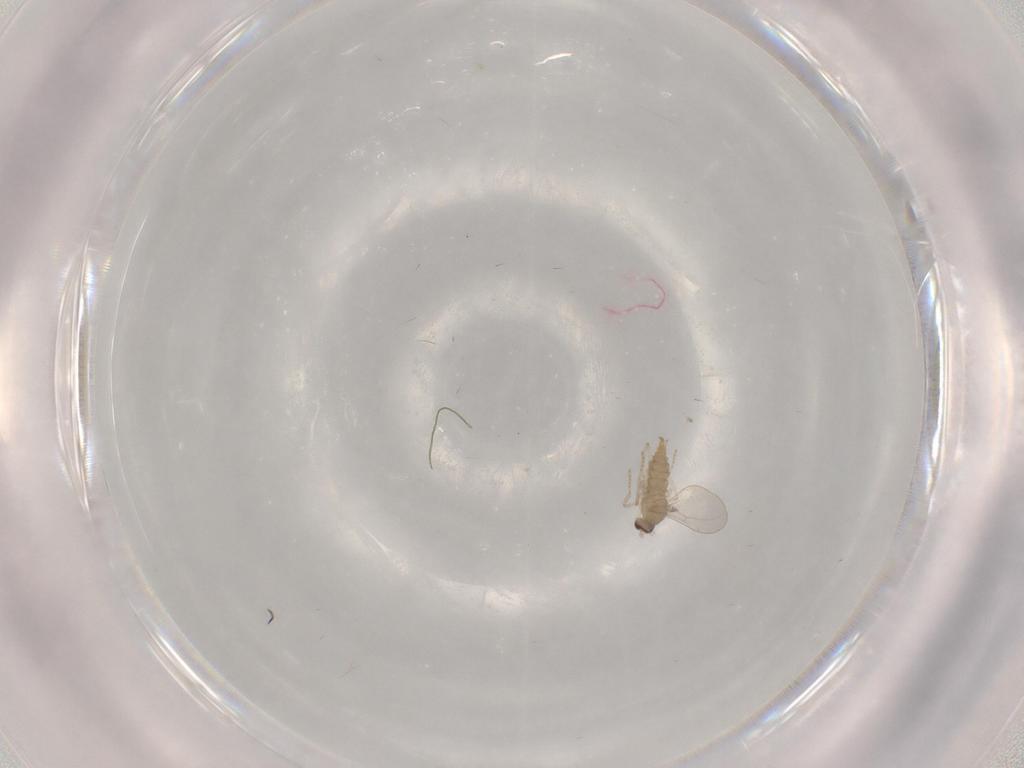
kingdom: Animalia
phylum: Arthropoda
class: Insecta
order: Diptera
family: Cecidomyiidae
